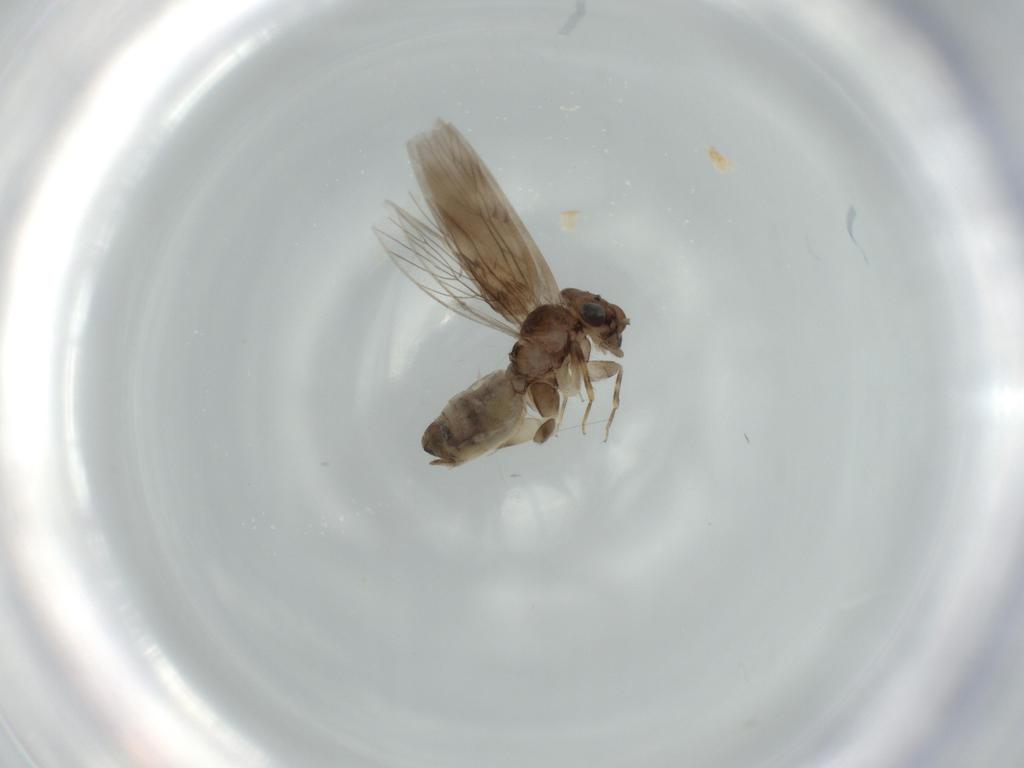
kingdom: Animalia
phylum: Arthropoda
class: Insecta
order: Psocodea
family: Lepidopsocidae
